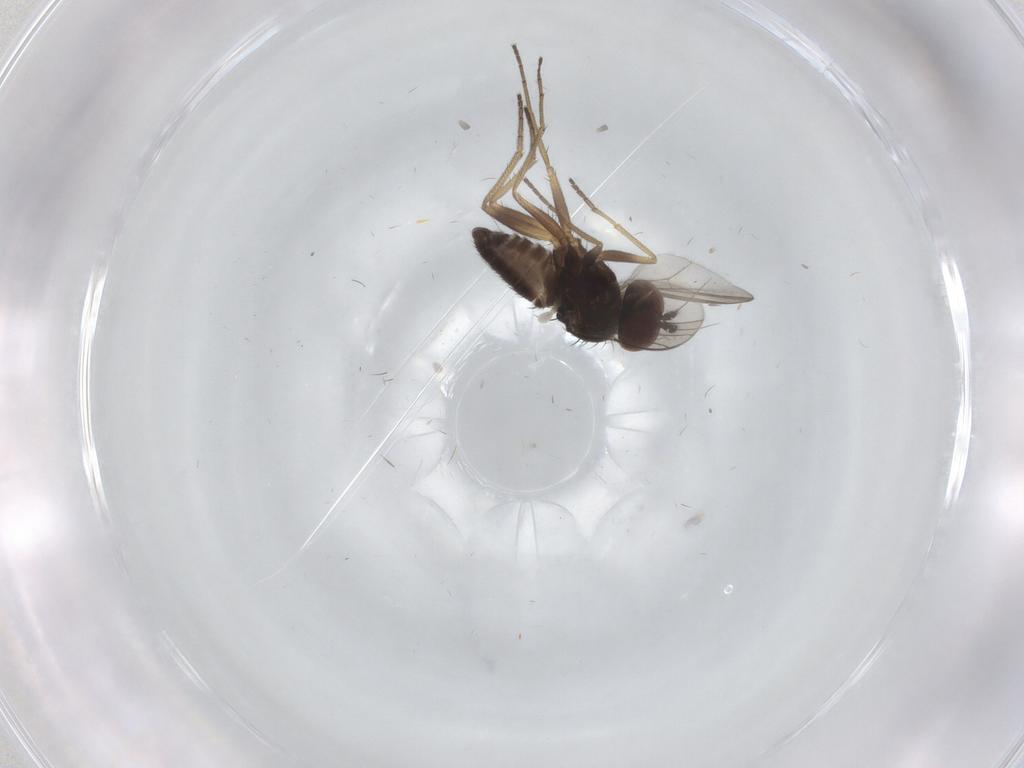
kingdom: Animalia
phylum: Arthropoda
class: Insecta
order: Diptera
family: Dolichopodidae
